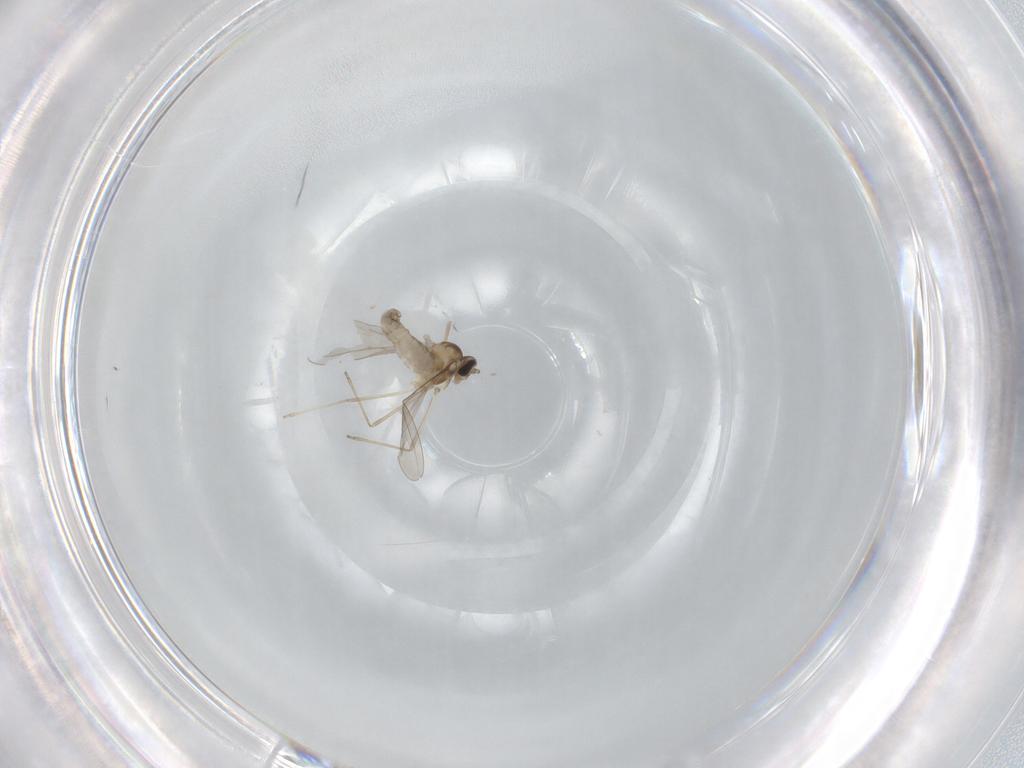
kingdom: Animalia
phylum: Arthropoda
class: Insecta
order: Diptera
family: Cecidomyiidae
